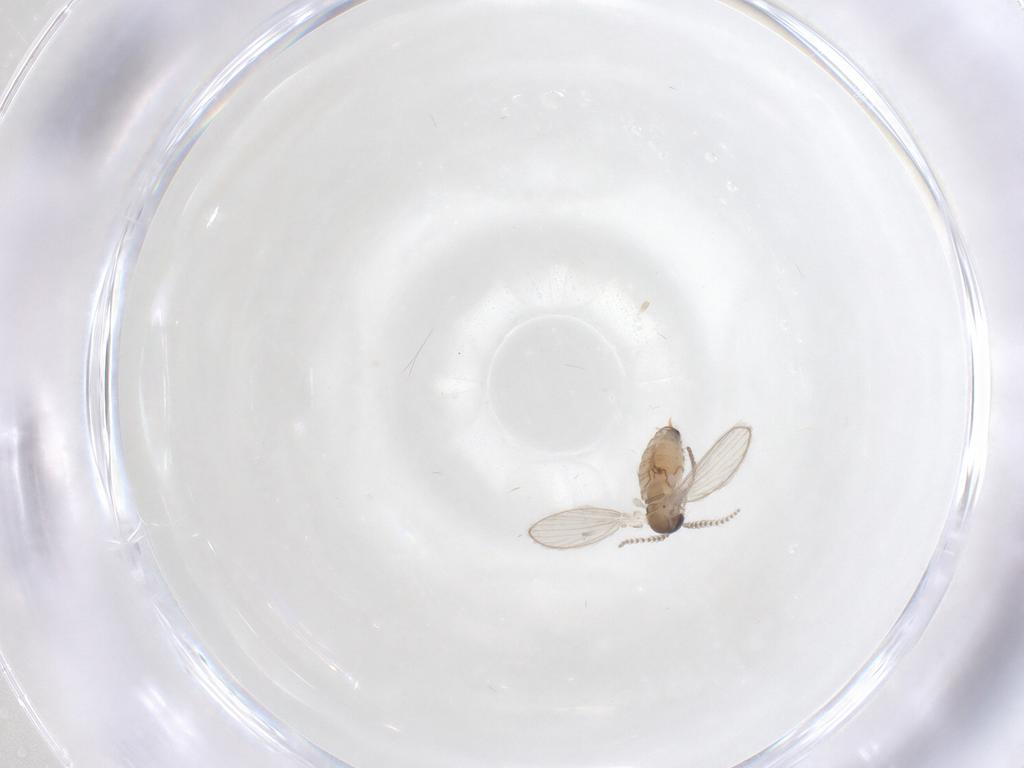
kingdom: Animalia
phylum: Arthropoda
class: Insecta
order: Diptera
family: Psychodidae
